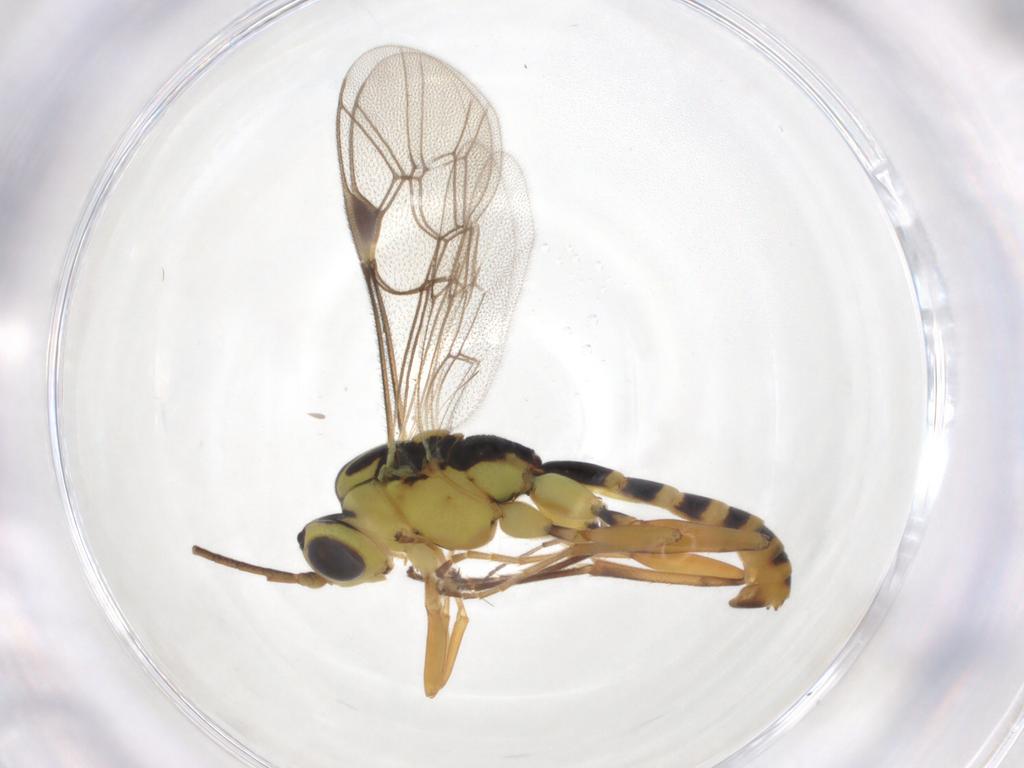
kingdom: Animalia
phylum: Arthropoda
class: Insecta
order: Hymenoptera
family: Ichneumonidae
